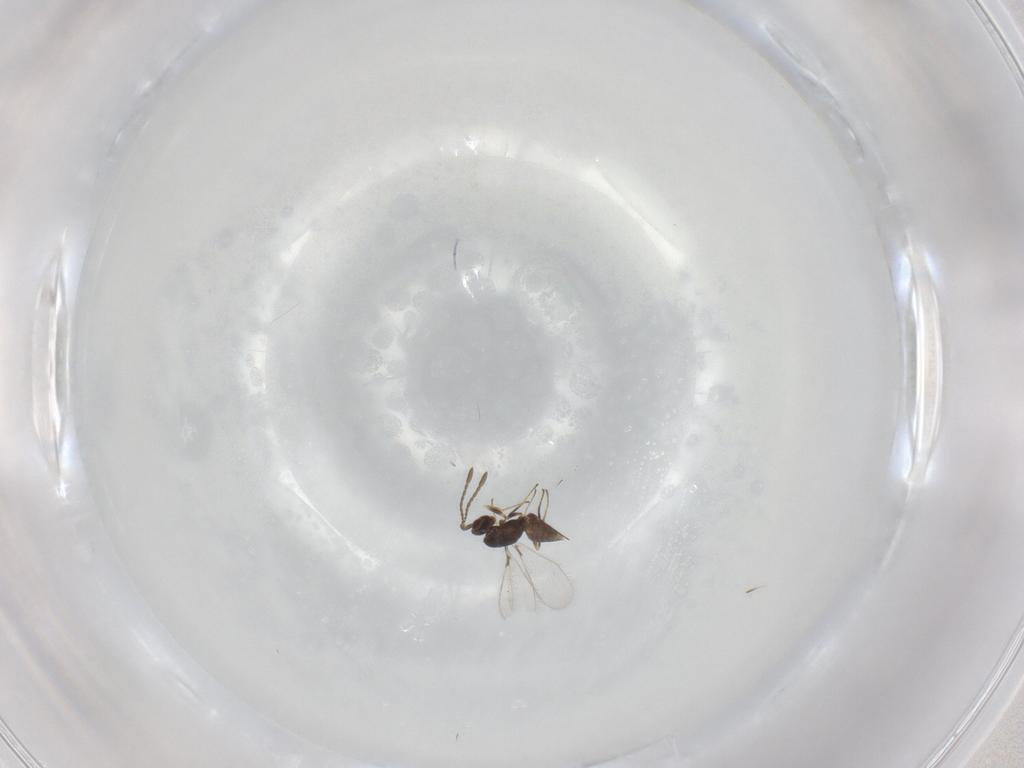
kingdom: Animalia
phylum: Arthropoda
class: Insecta
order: Hymenoptera
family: Mymaridae
